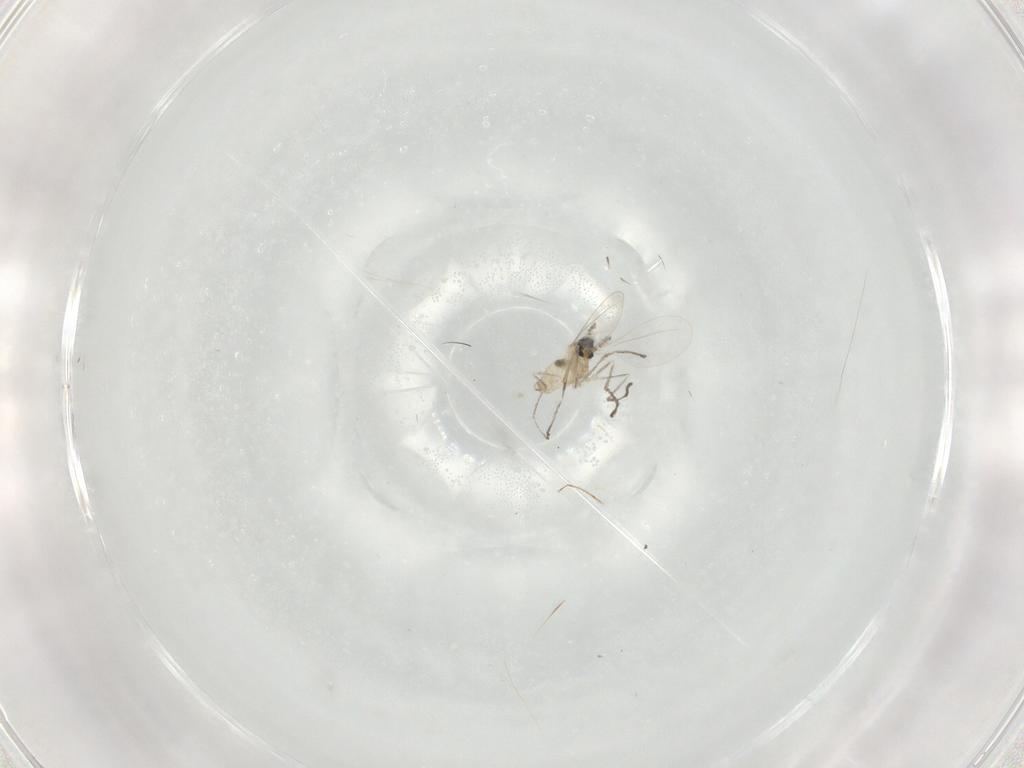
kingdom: Animalia
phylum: Arthropoda
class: Insecta
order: Diptera
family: Cecidomyiidae
